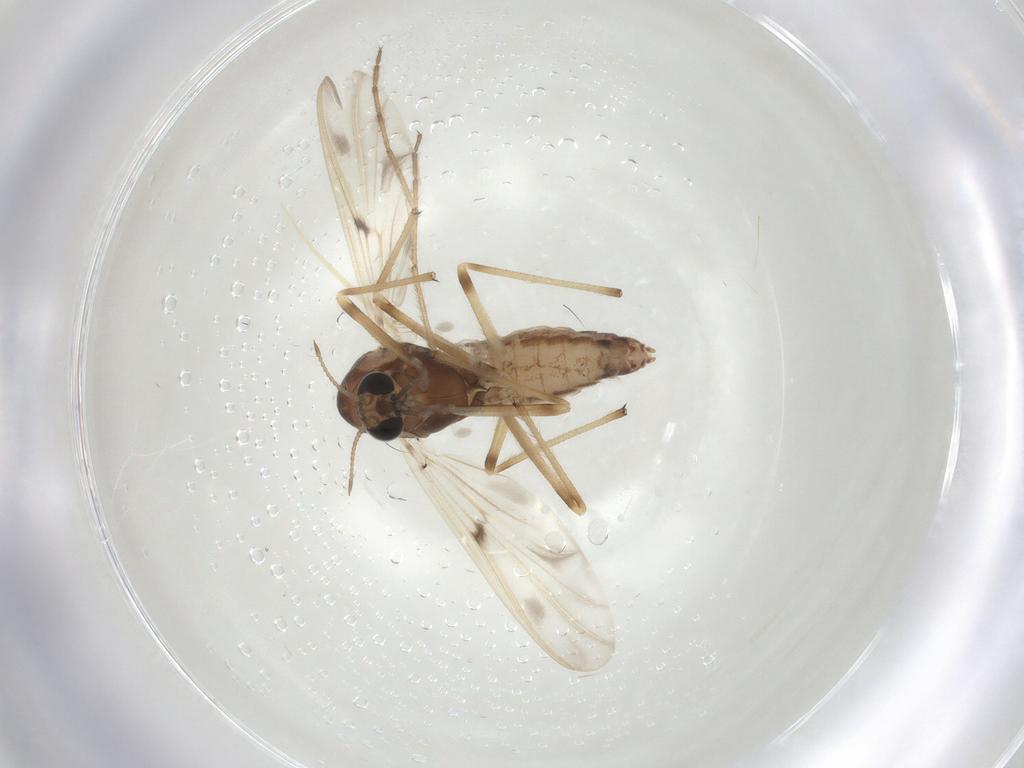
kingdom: Animalia
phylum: Arthropoda
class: Insecta
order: Diptera
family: Chironomidae
